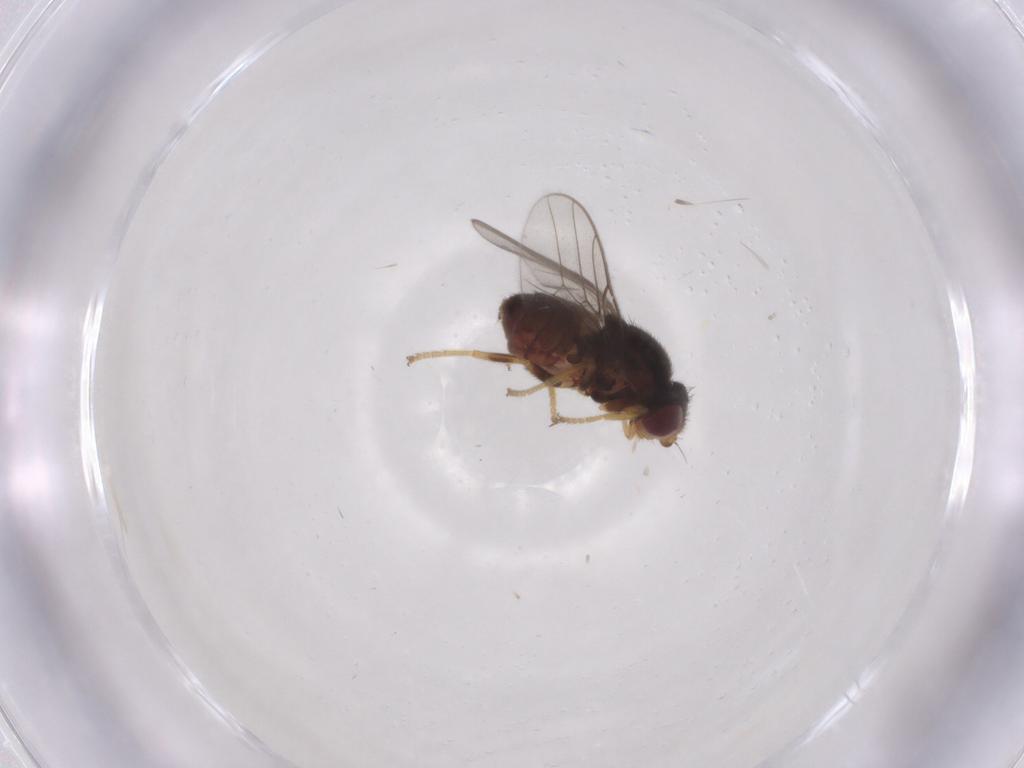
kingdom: Animalia
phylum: Arthropoda
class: Insecta
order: Diptera
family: Chloropidae
